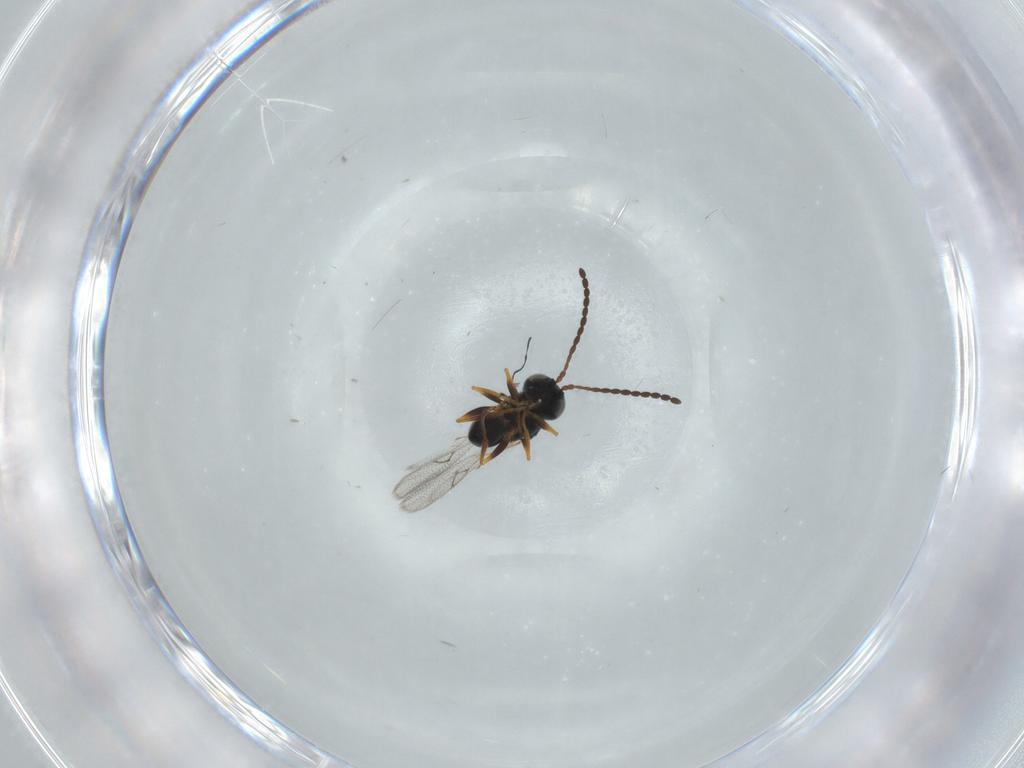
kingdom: Animalia
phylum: Arthropoda
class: Insecta
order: Hymenoptera
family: Figitidae
